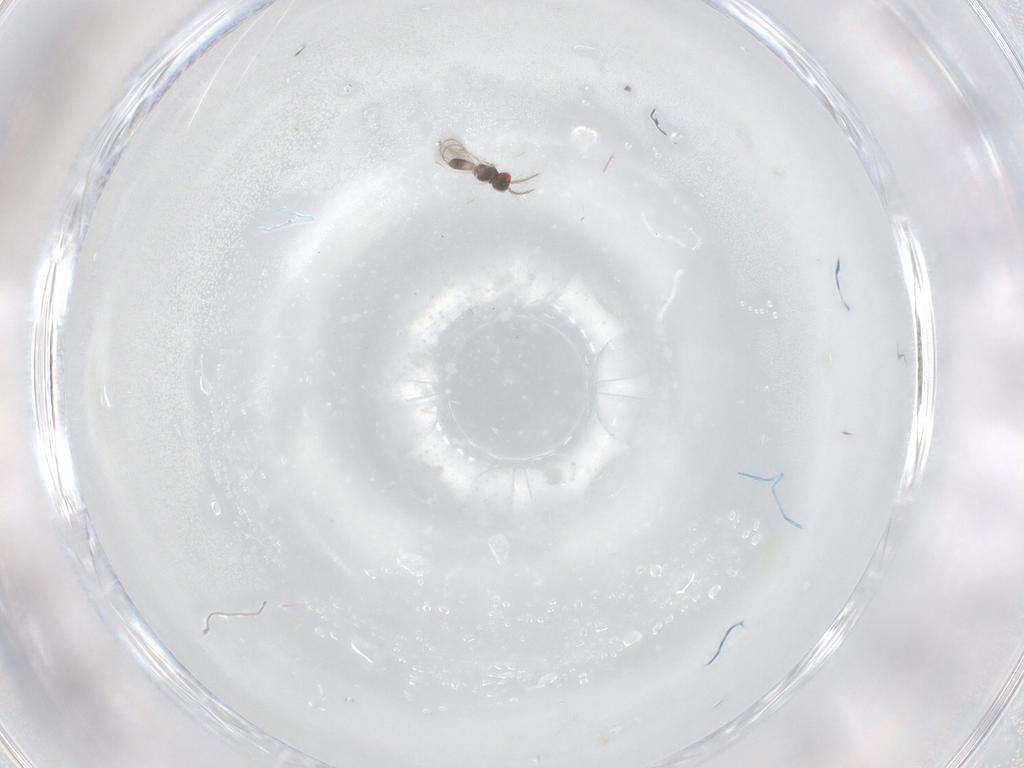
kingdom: Animalia
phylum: Arthropoda
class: Insecta
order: Hymenoptera
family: Eulophidae
